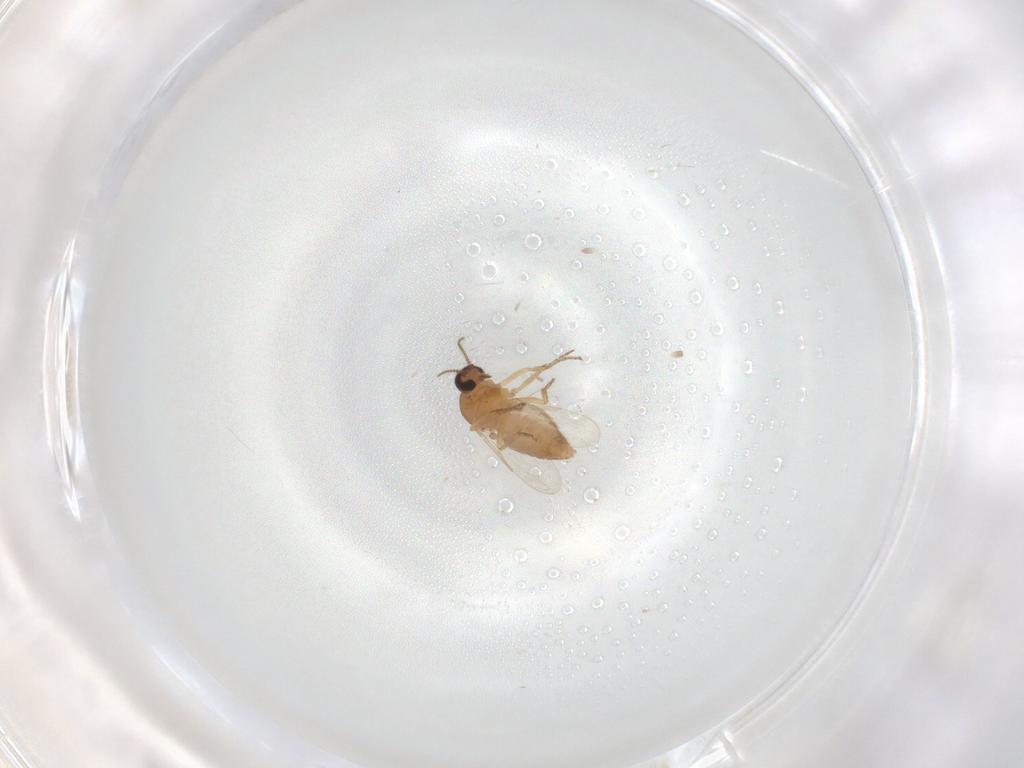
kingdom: Animalia
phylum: Arthropoda
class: Insecta
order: Diptera
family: Ceratopogonidae
